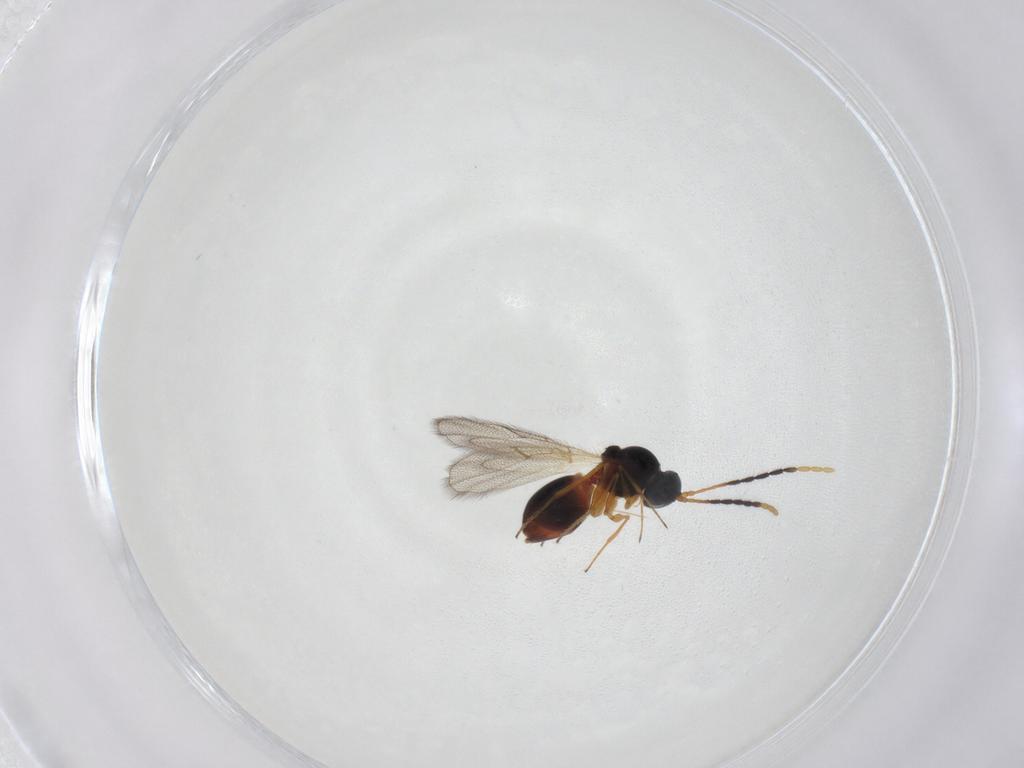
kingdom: Animalia
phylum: Arthropoda
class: Insecta
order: Hymenoptera
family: Figitidae
